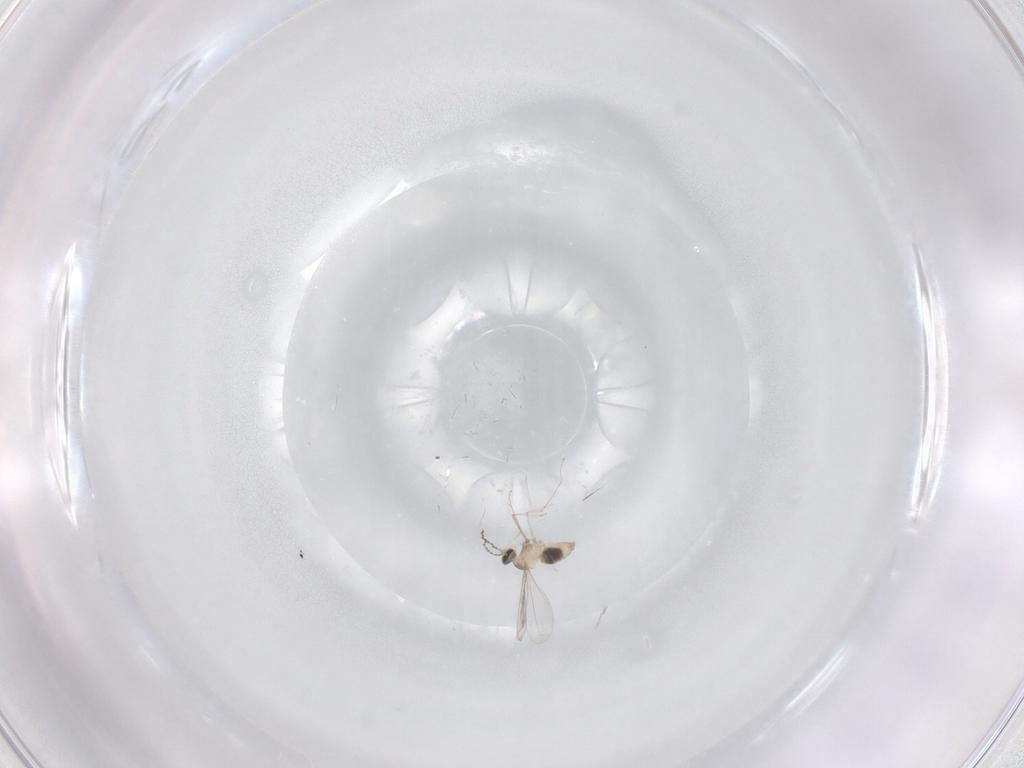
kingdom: Animalia
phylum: Arthropoda
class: Insecta
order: Diptera
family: Cecidomyiidae
